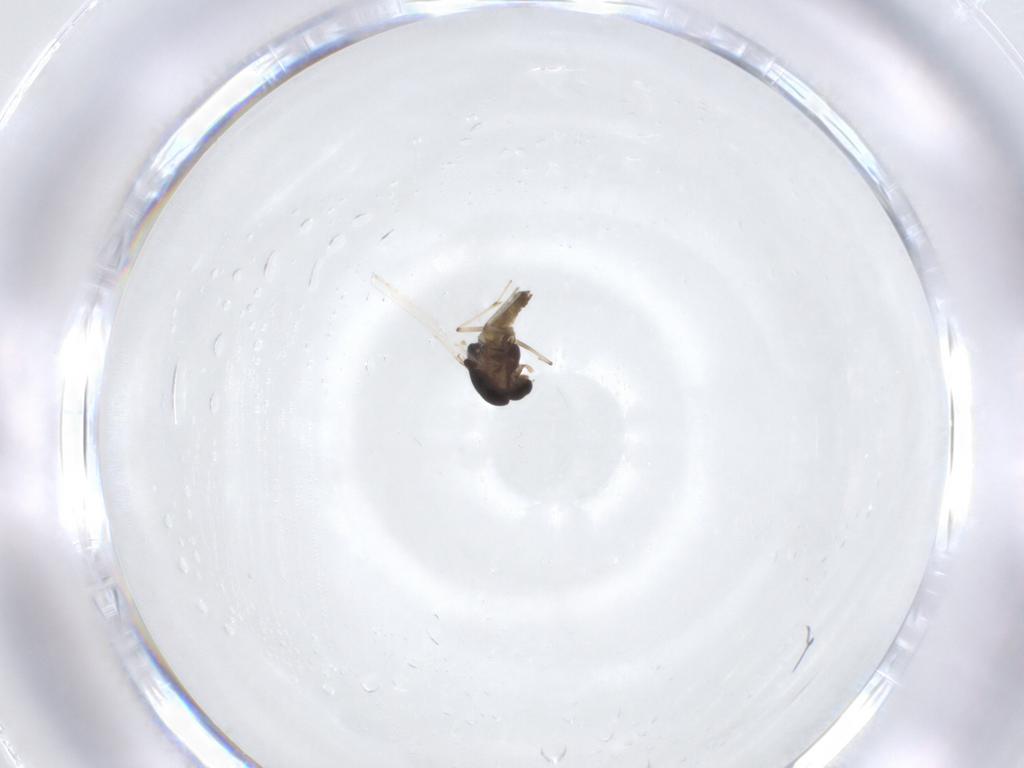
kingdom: Animalia
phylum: Arthropoda
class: Insecta
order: Diptera
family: Chironomidae
